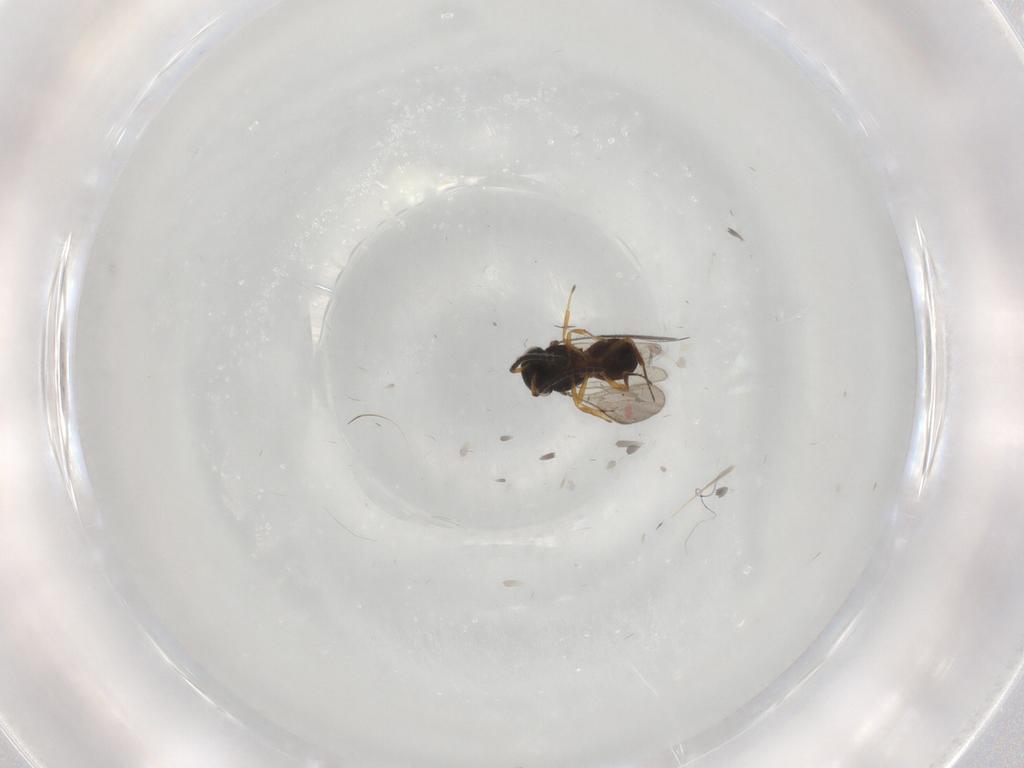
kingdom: Animalia
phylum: Arthropoda
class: Insecta
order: Hymenoptera
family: Scelionidae
